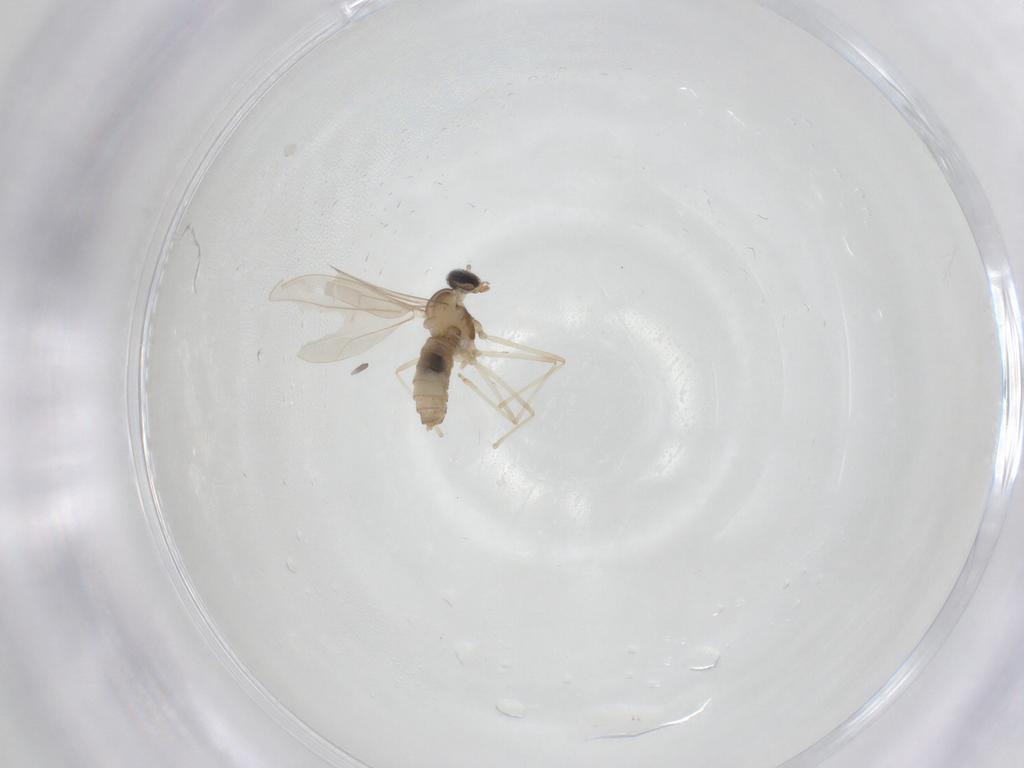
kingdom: Animalia
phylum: Arthropoda
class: Insecta
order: Diptera
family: Cecidomyiidae
